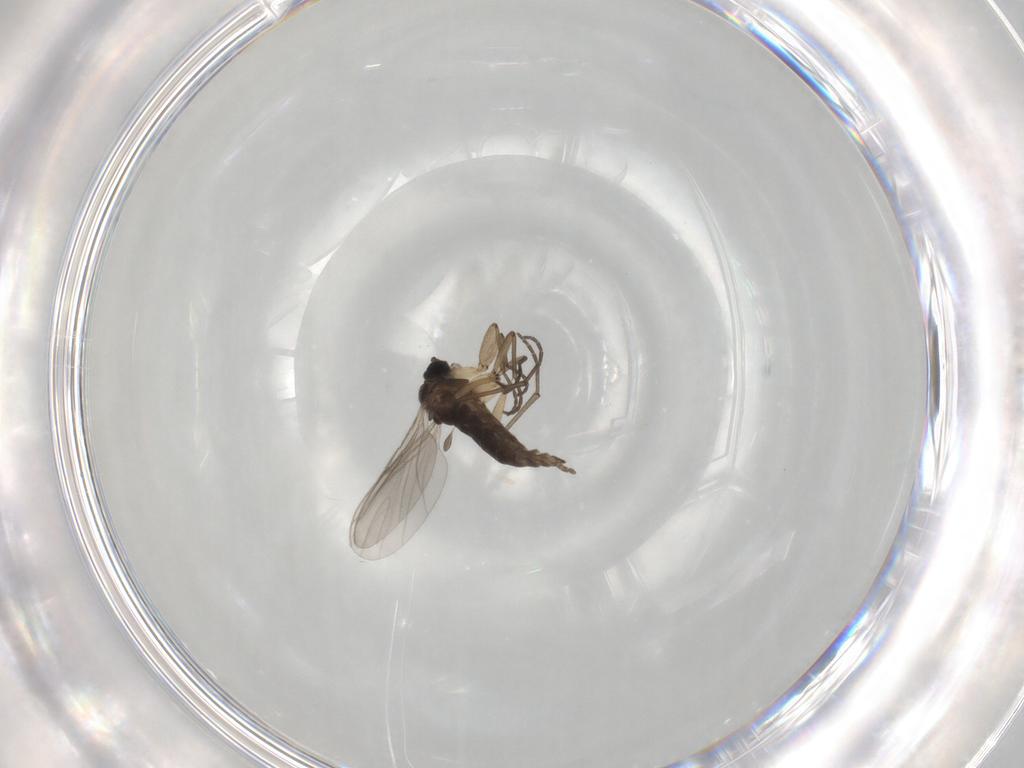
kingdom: Animalia
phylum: Arthropoda
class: Insecta
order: Diptera
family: Sciaridae
